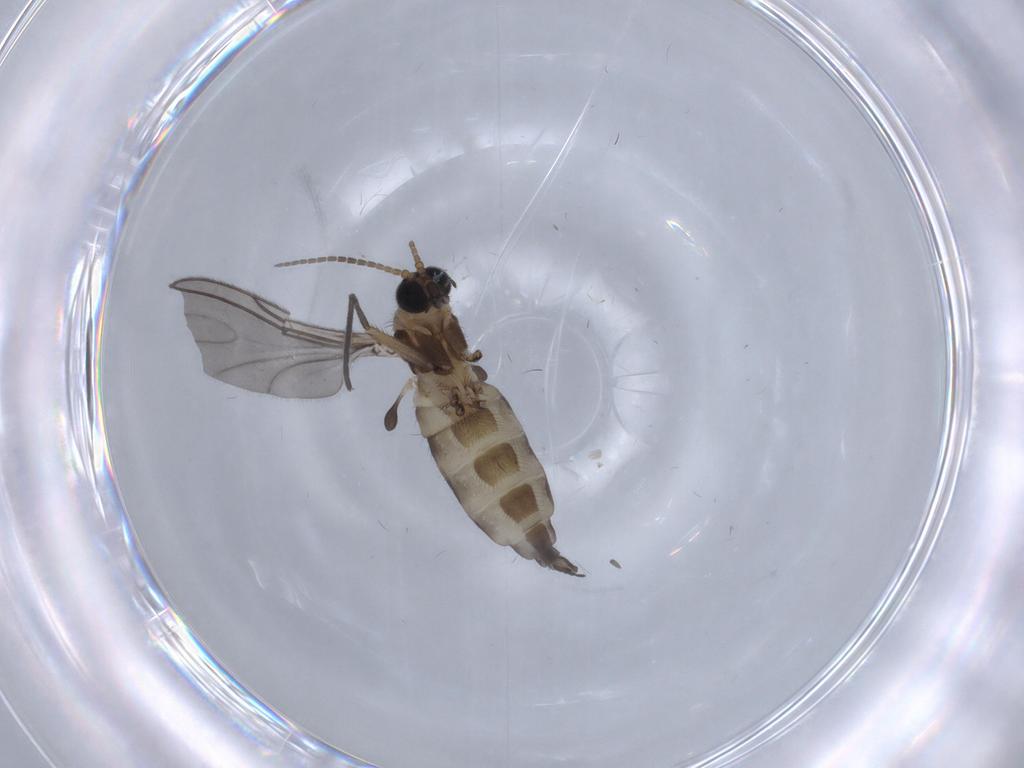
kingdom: Animalia
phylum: Arthropoda
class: Insecta
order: Diptera
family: Sciaridae
